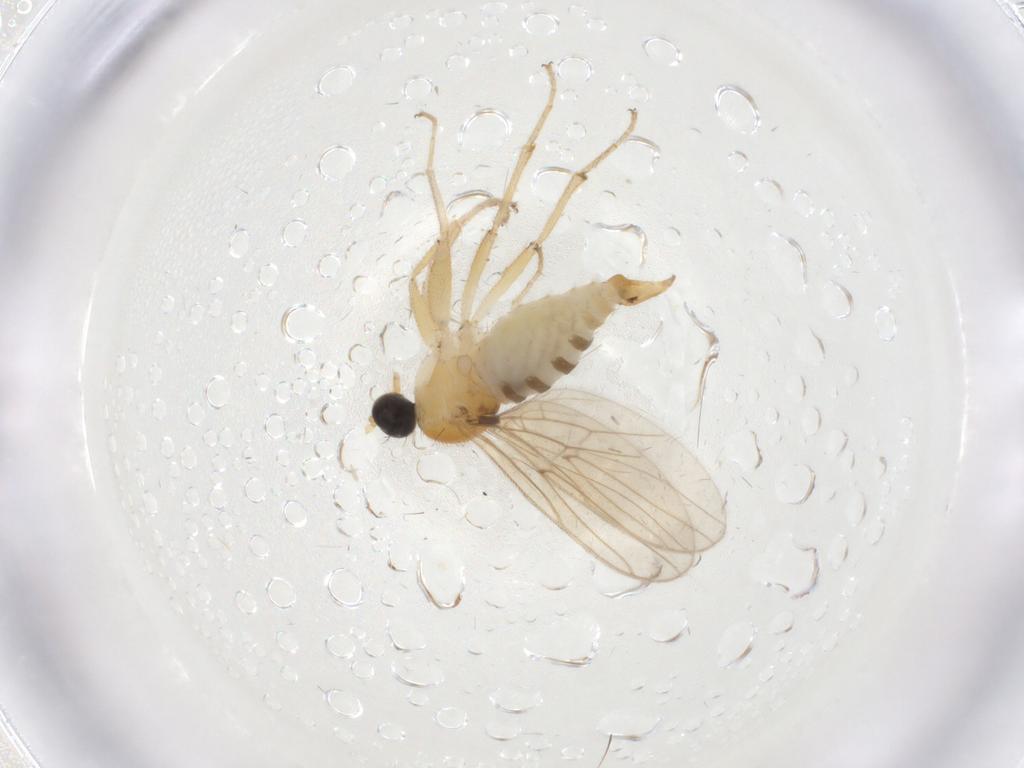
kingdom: Animalia
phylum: Arthropoda
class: Insecta
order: Diptera
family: Hybotidae
